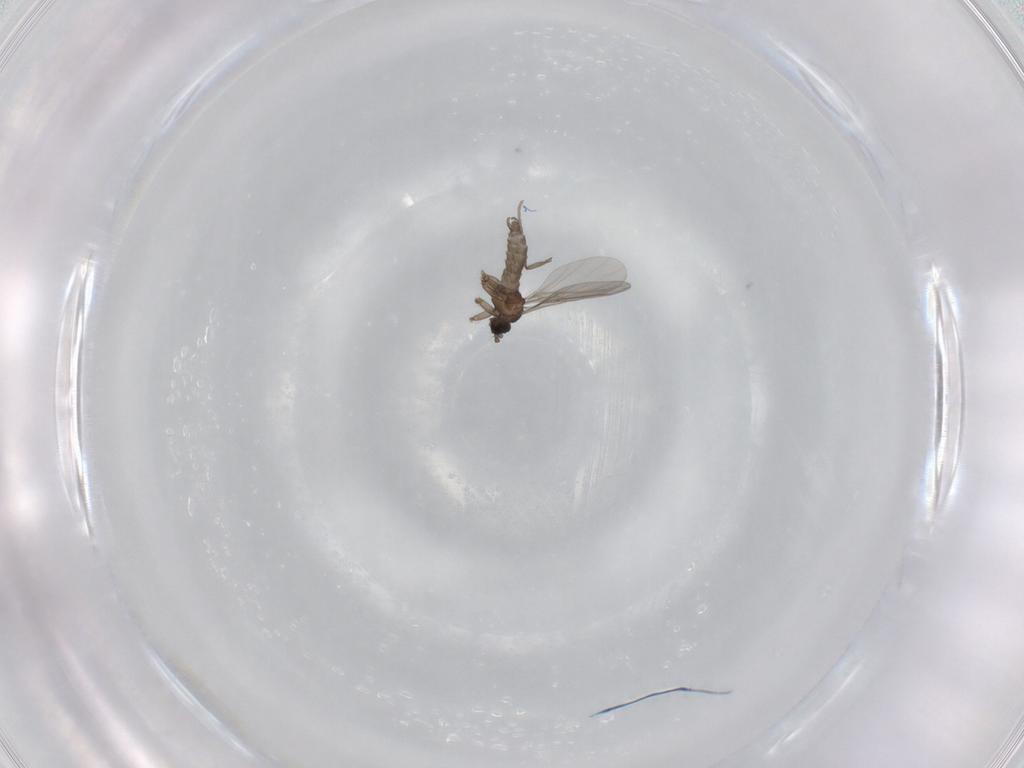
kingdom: Animalia
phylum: Arthropoda
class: Insecta
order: Diptera
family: Sciaridae
